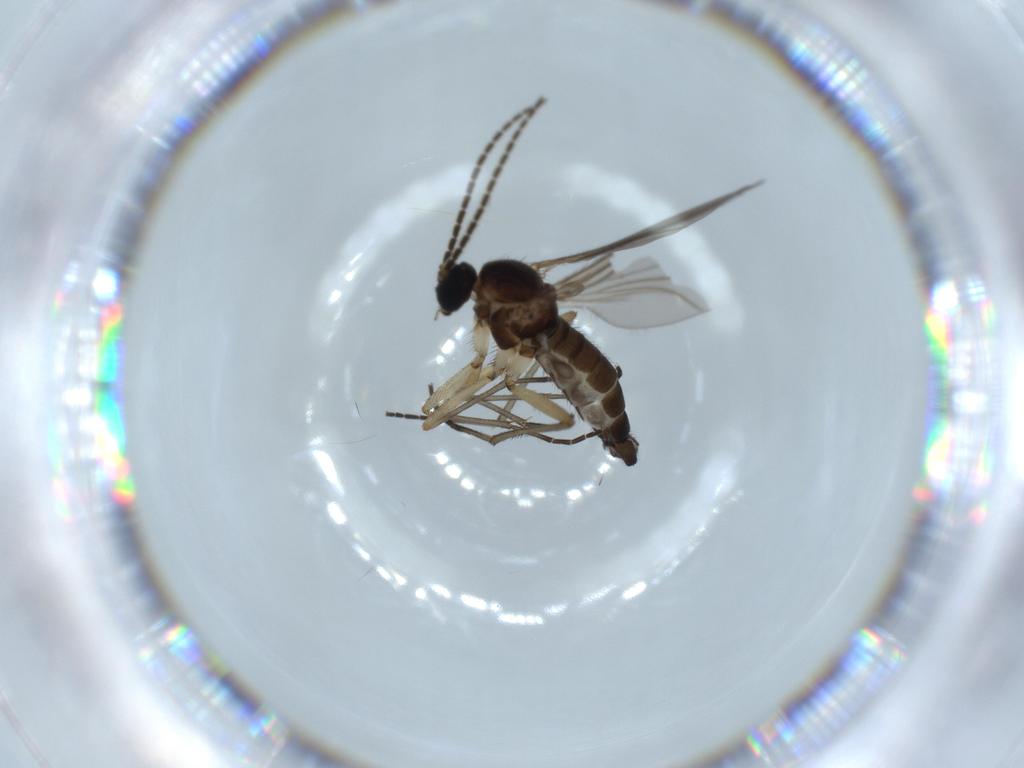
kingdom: Animalia
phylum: Arthropoda
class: Insecta
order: Diptera
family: Sciaridae
